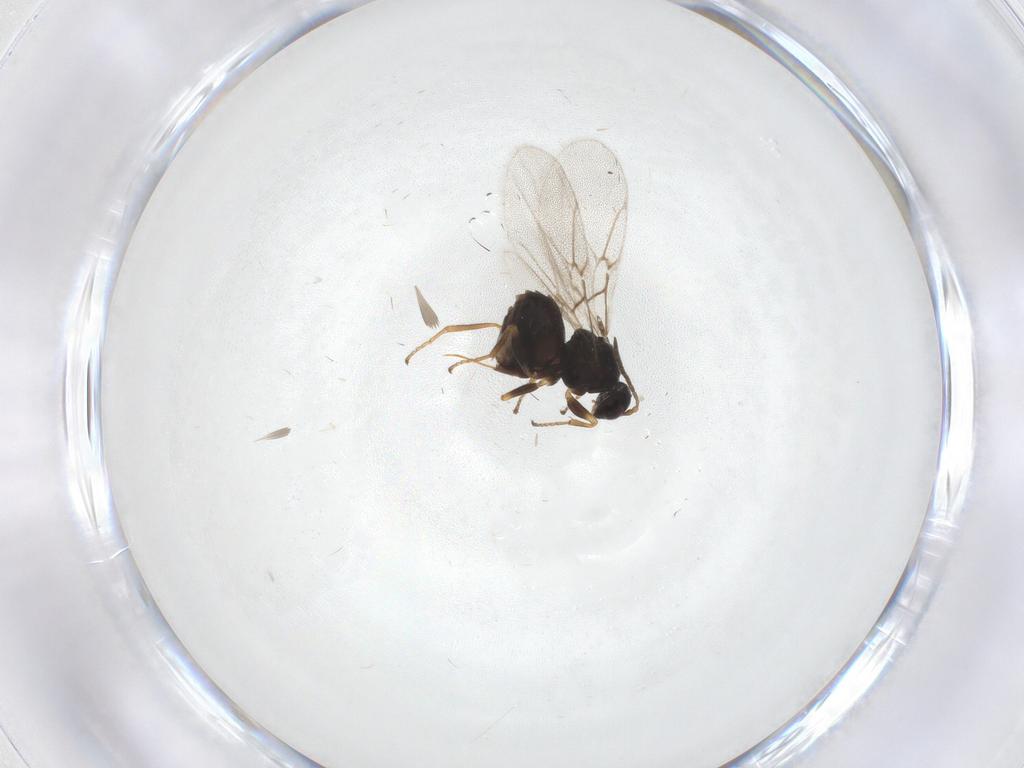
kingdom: Animalia
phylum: Arthropoda
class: Insecta
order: Hymenoptera
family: Cynipidae
